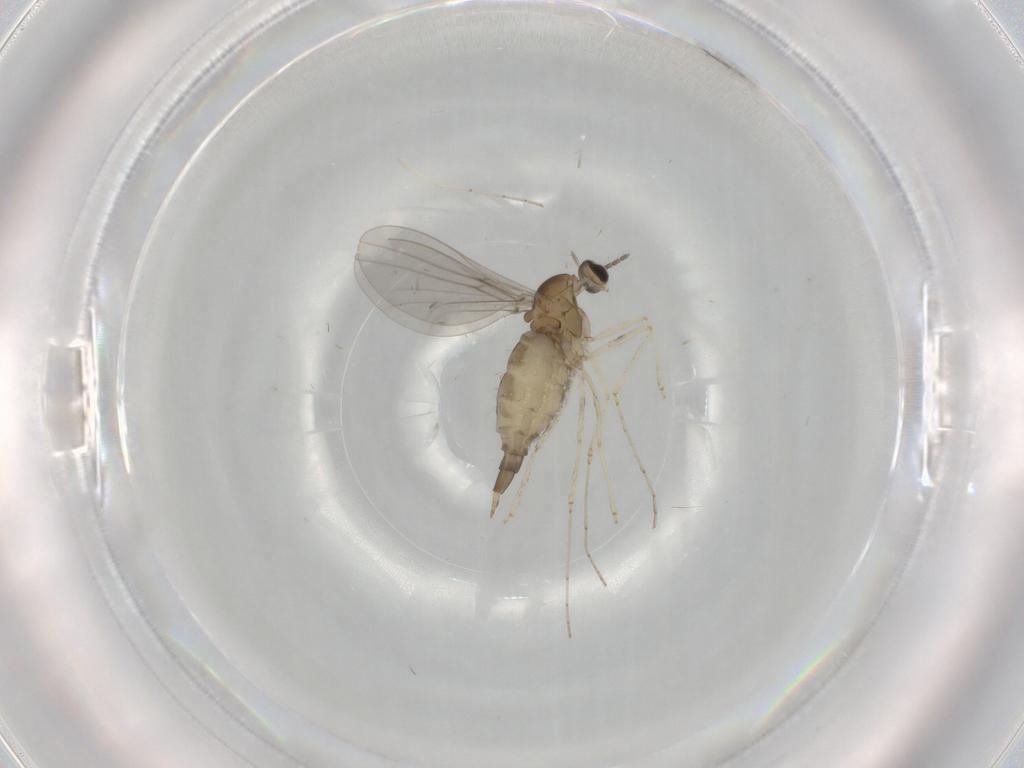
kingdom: Animalia
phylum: Arthropoda
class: Insecta
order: Diptera
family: Cecidomyiidae
